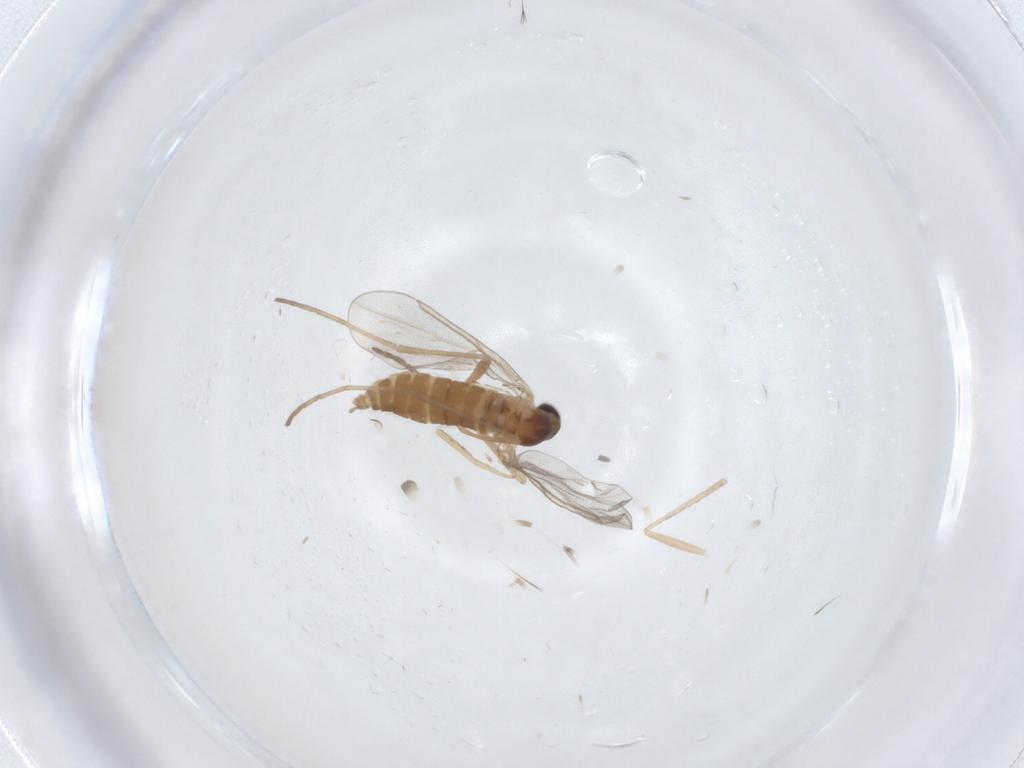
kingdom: Animalia
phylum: Arthropoda
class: Insecta
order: Diptera
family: Cecidomyiidae
